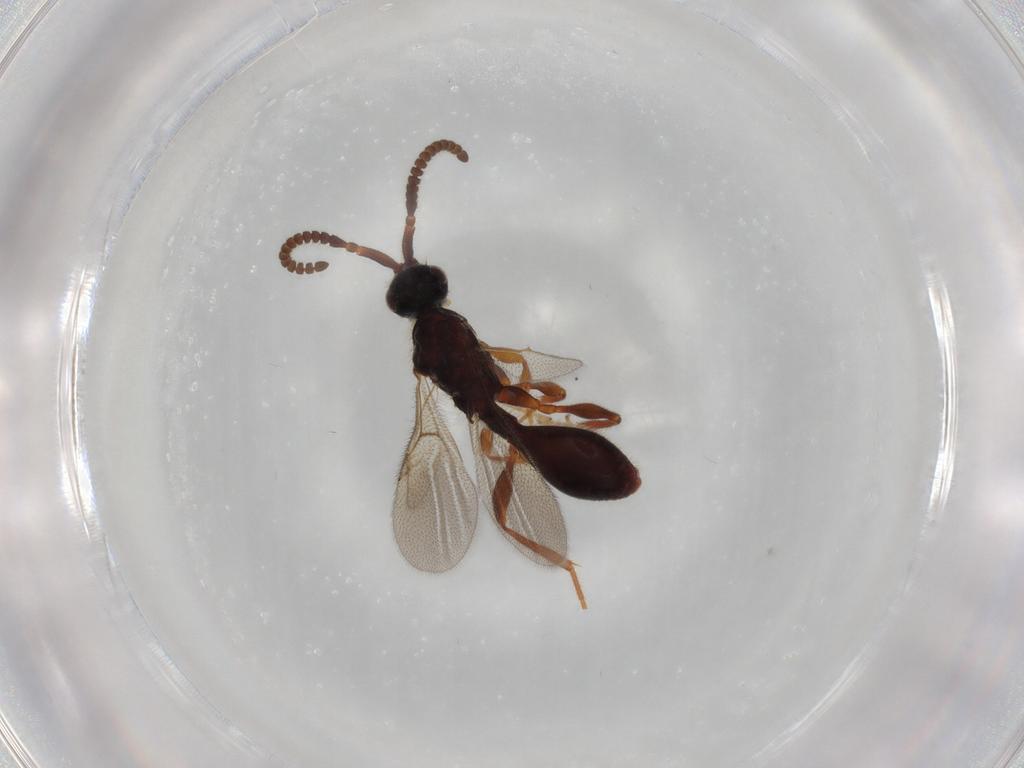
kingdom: Animalia
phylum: Arthropoda
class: Insecta
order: Hymenoptera
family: Diapriidae
